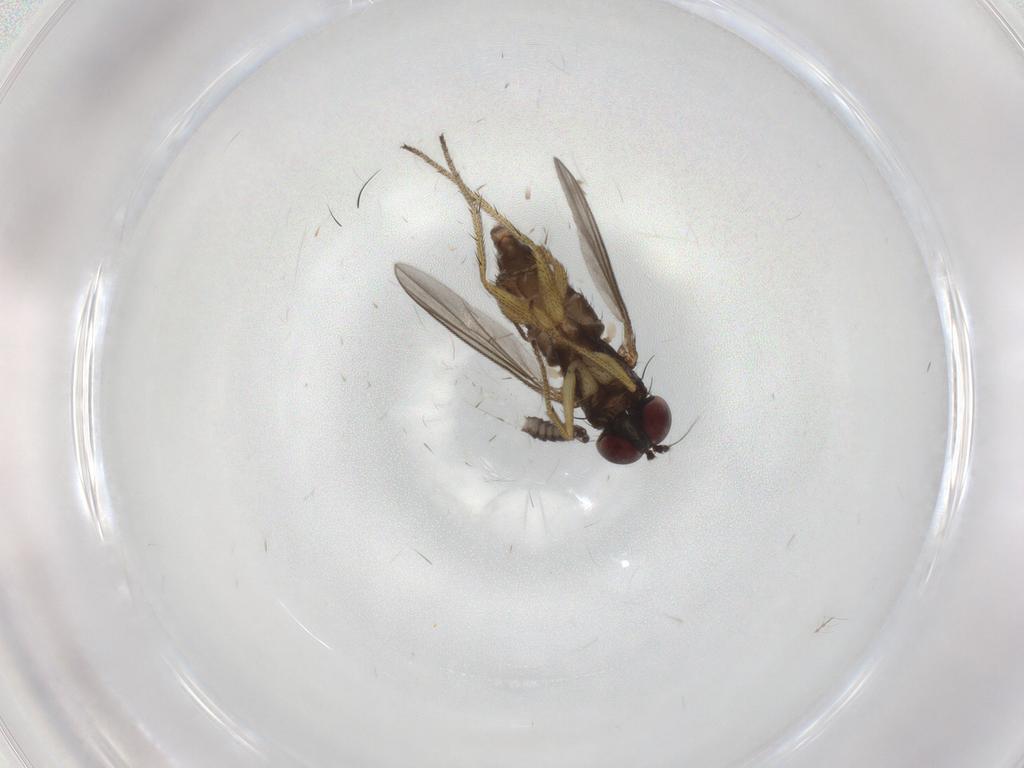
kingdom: Animalia
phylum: Arthropoda
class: Insecta
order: Diptera
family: Sciaridae
